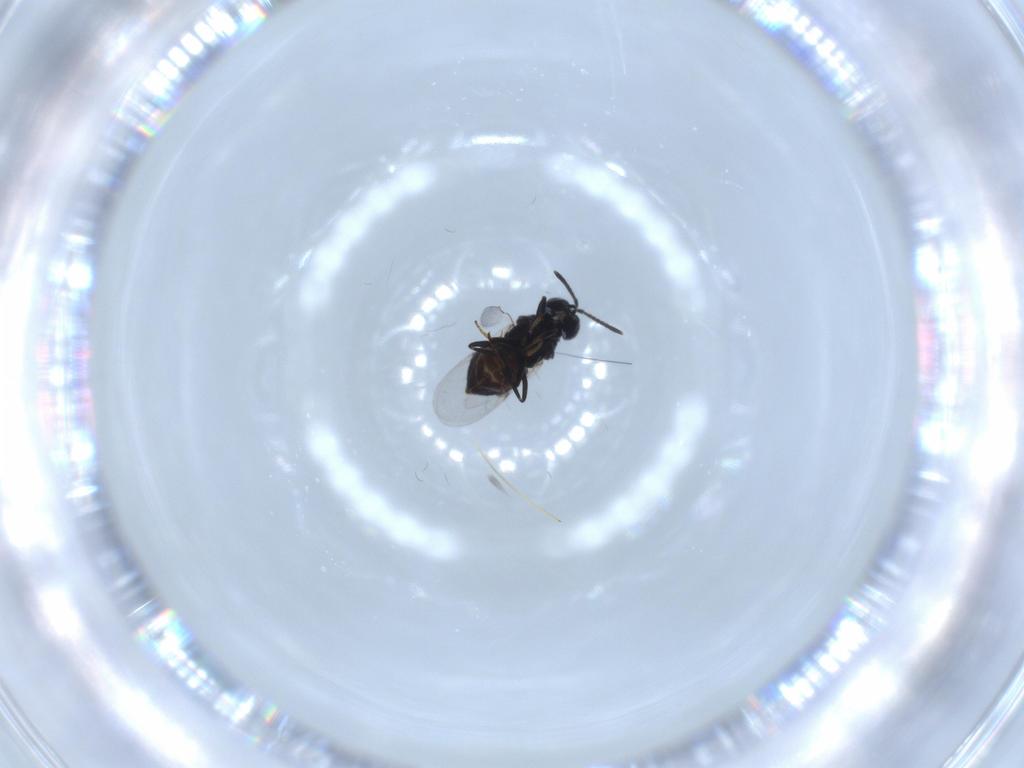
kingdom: Animalia
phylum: Arthropoda
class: Insecta
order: Hymenoptera
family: Encyrtidae
